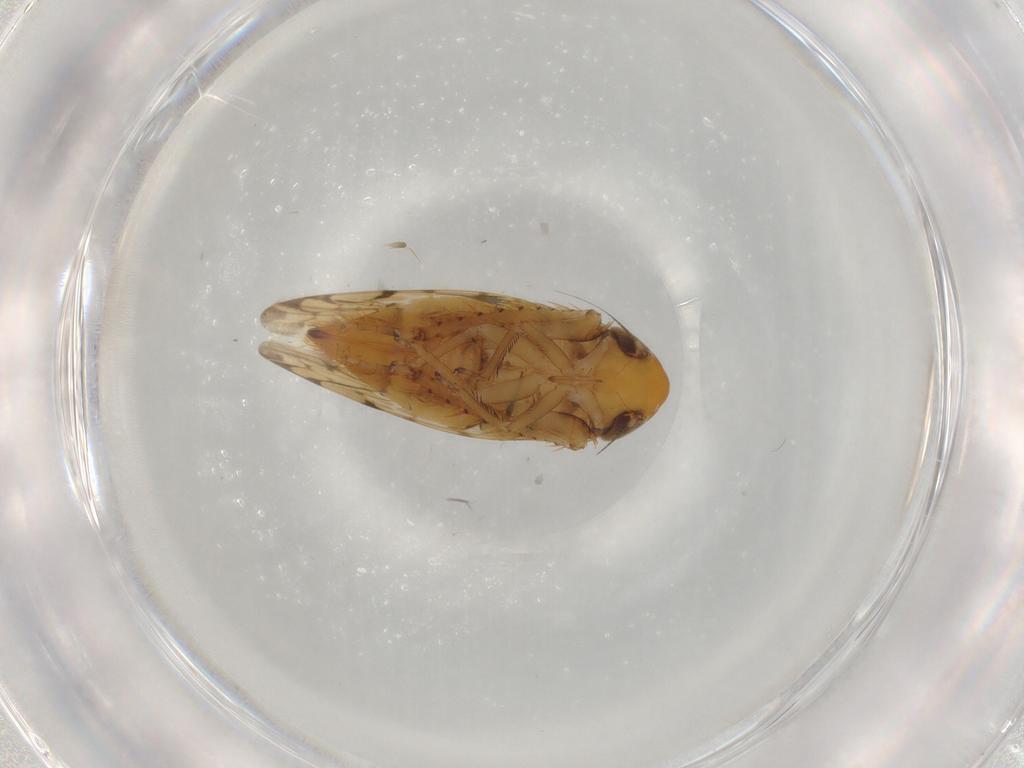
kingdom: Animalia
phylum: Arthropoda
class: Insecta
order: Hemiptera
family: Cicadellidae
